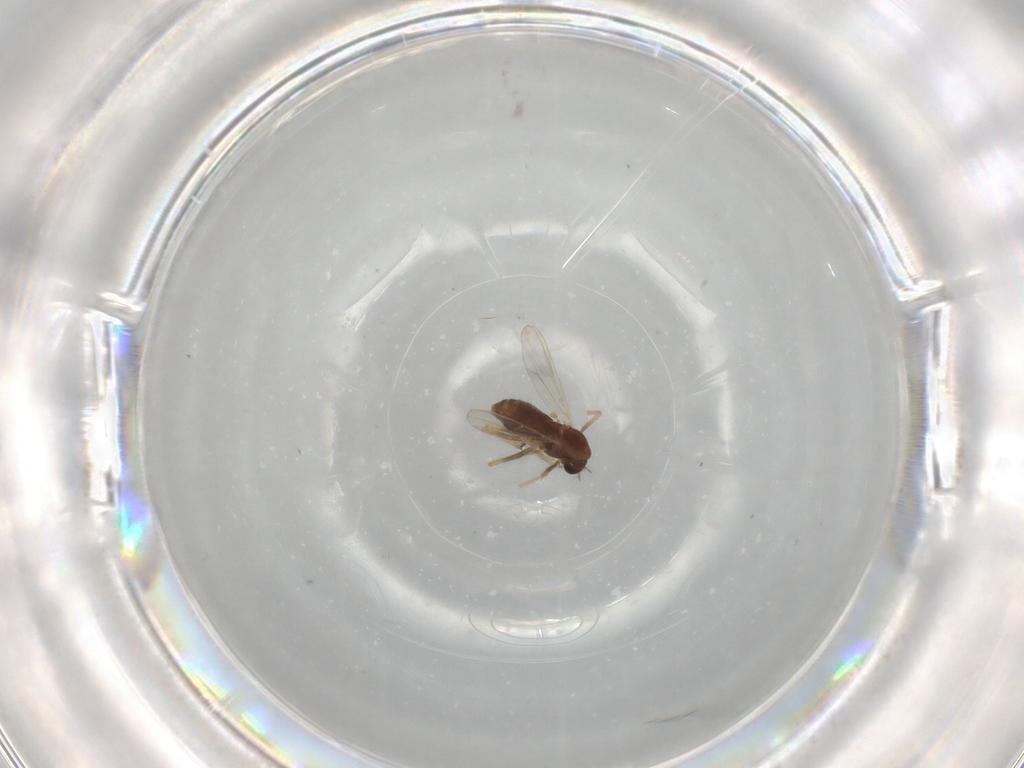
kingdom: Animalia
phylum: Arthropoda
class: Insecta
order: Diptera
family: Chironomidae
